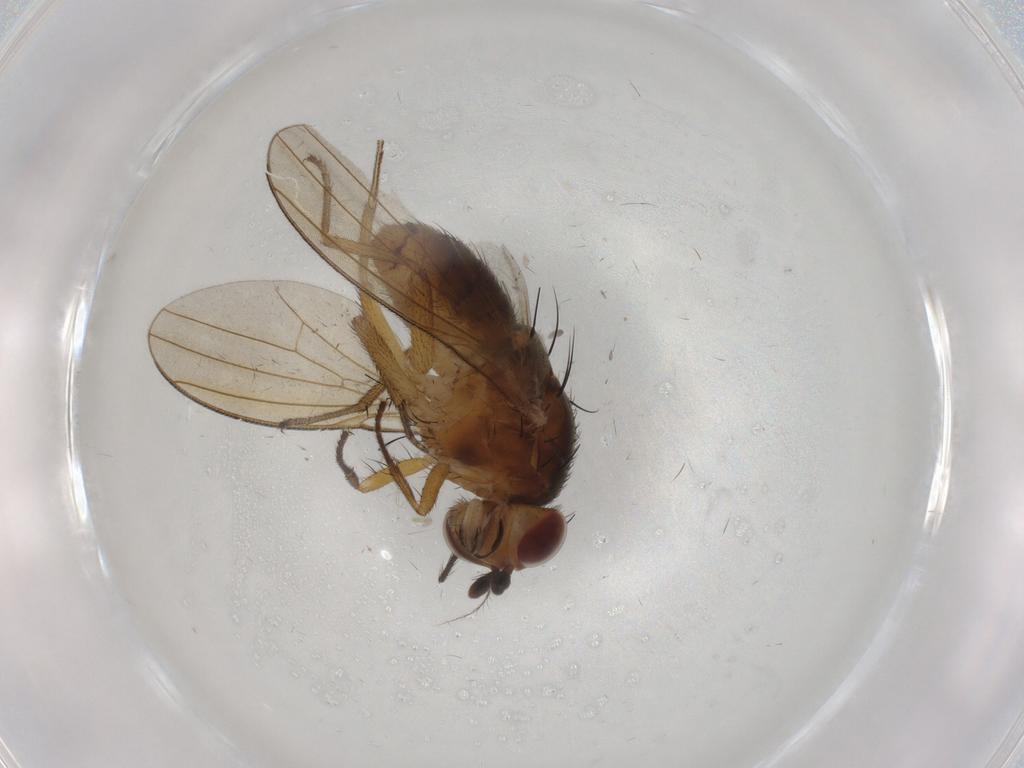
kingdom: Animalia
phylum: Arthropoda
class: Insecta
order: Diptera
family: Limoniidae
